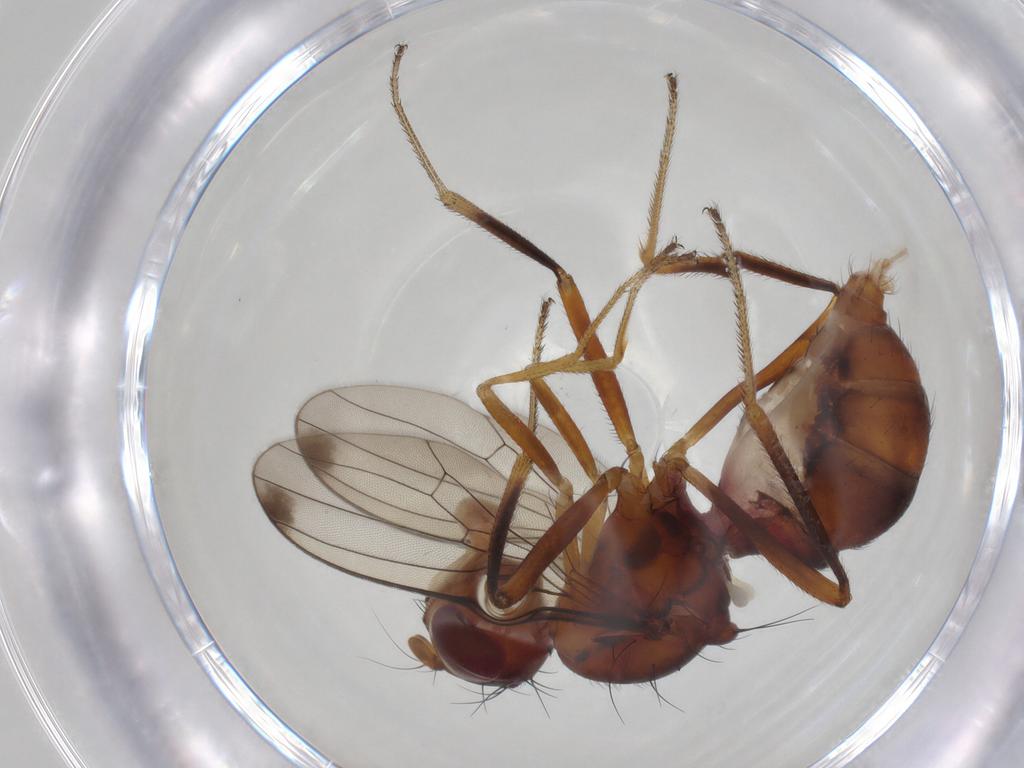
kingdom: Animalia
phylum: Arthropoda
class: Insecta
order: Diptera
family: Sepsidae
